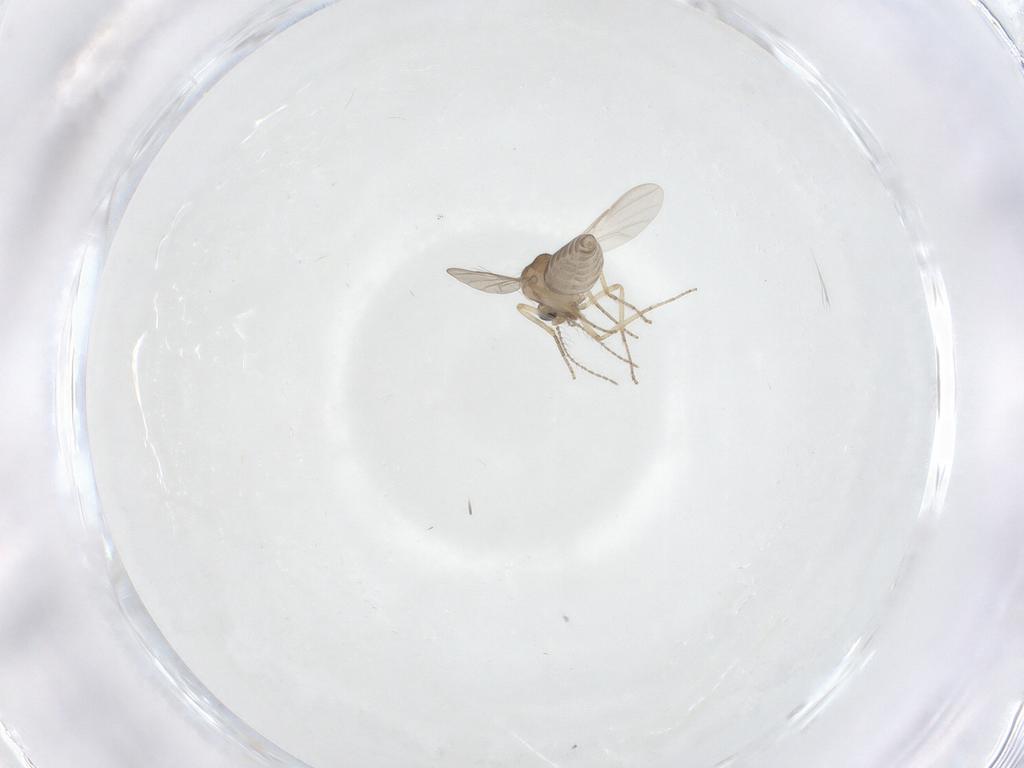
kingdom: Animalia
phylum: Arthropoda
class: Insecta
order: Diptera
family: Ceratopogonidae
